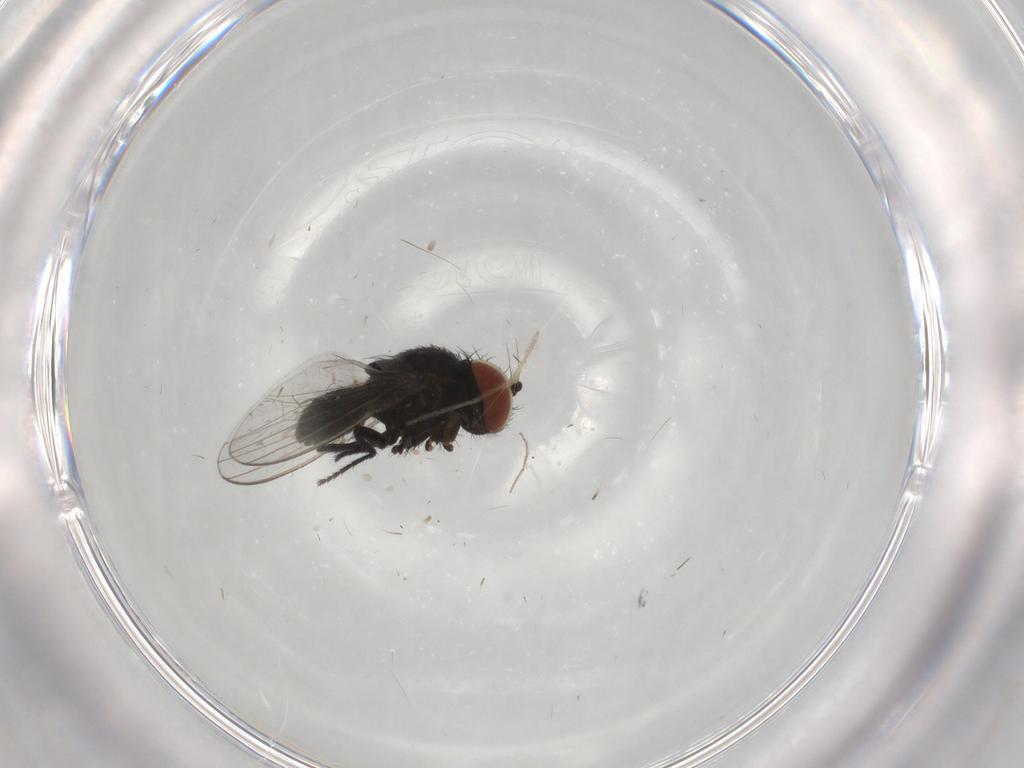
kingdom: Animalia
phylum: Arthropoda
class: Insecta
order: Diptera
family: Milichiidae
